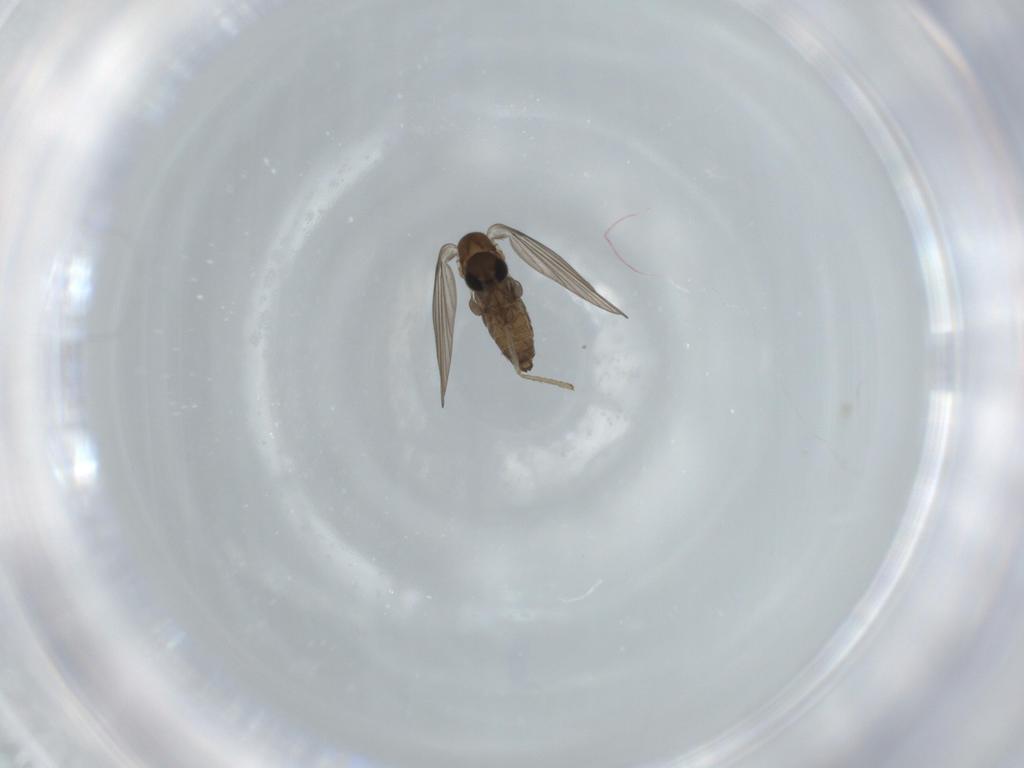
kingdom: Animalia
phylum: Arthropoda
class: Insecta
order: Diptera
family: Psychodidae
